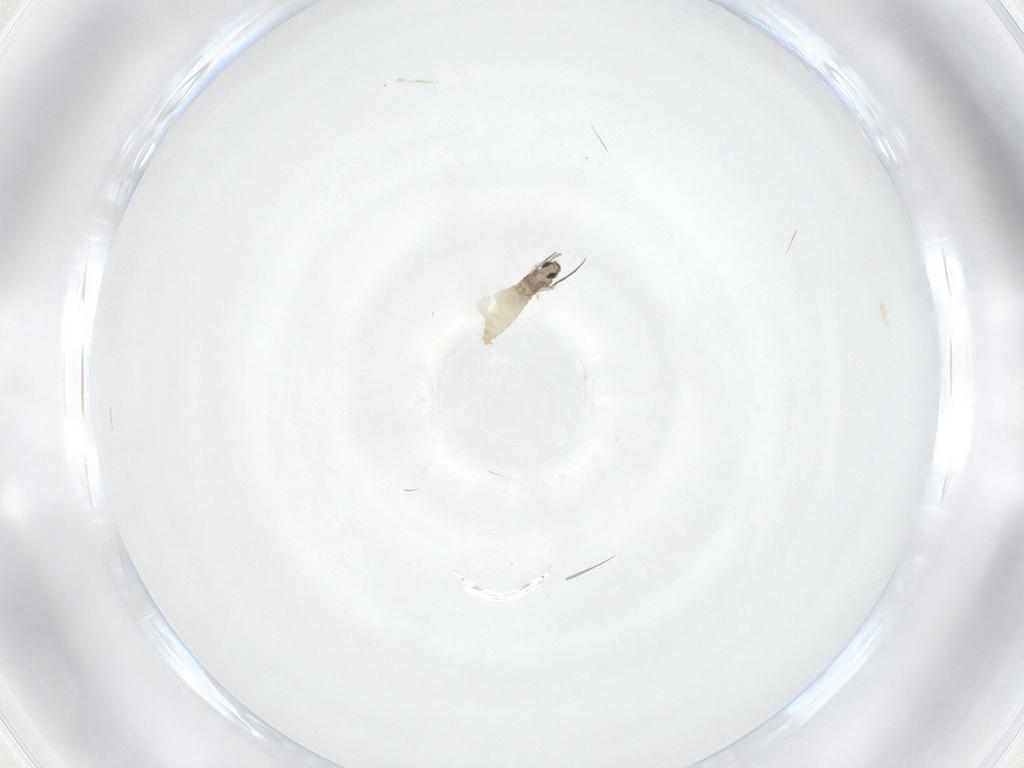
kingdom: Animalia
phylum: Arthropoda
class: Insecta
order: Diptera
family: Cecidomyiidae
